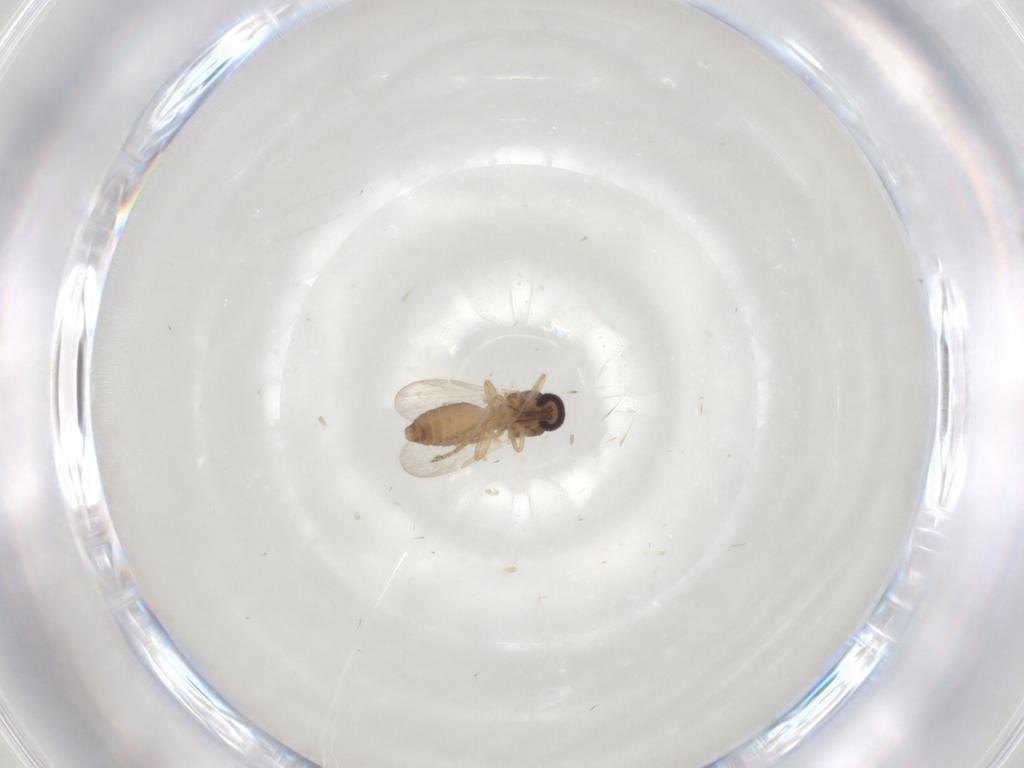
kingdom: Animalia
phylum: Arthropoda
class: Insecta
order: Diptera
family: Ceratopogonidae
